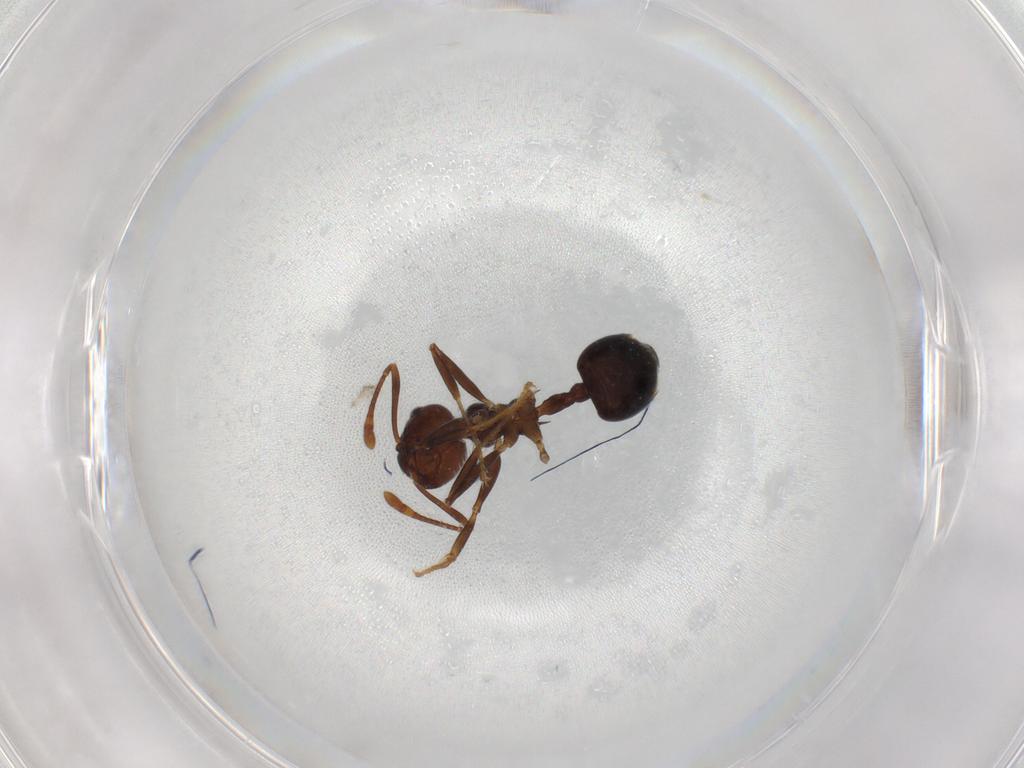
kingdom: Animalia
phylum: Arthropoda
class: Insecta
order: Hymenoptera
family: Formicidae
